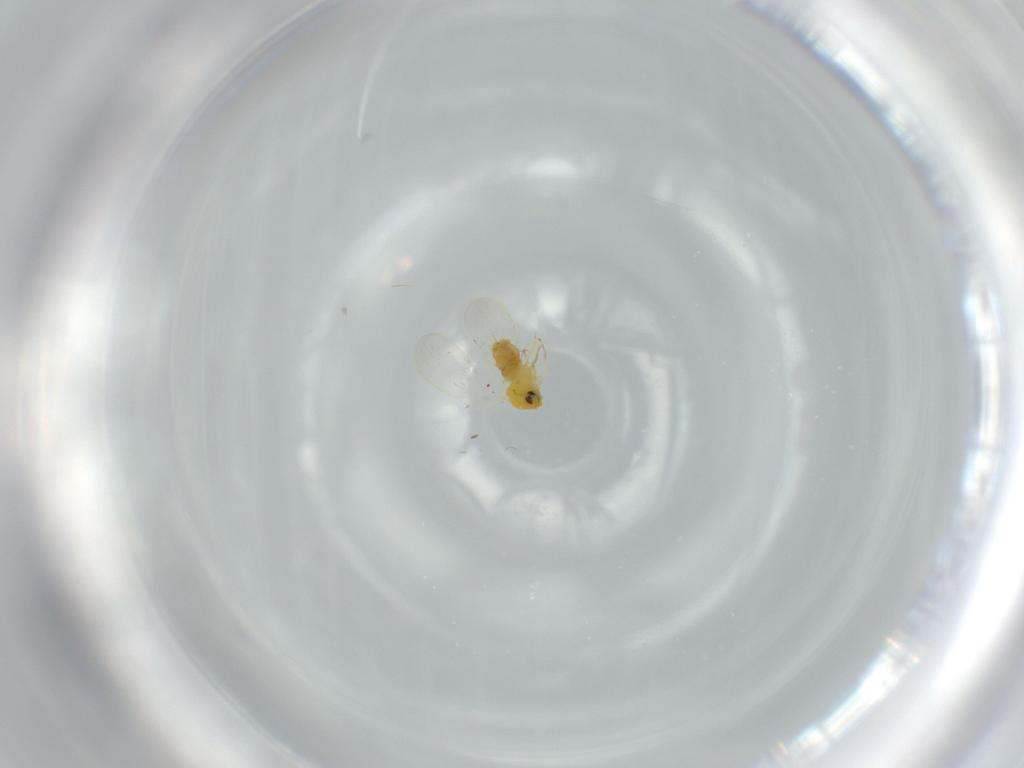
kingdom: Animalia
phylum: Arthropoda
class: Insecta
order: Hemiptera
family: Aleyrodidae
